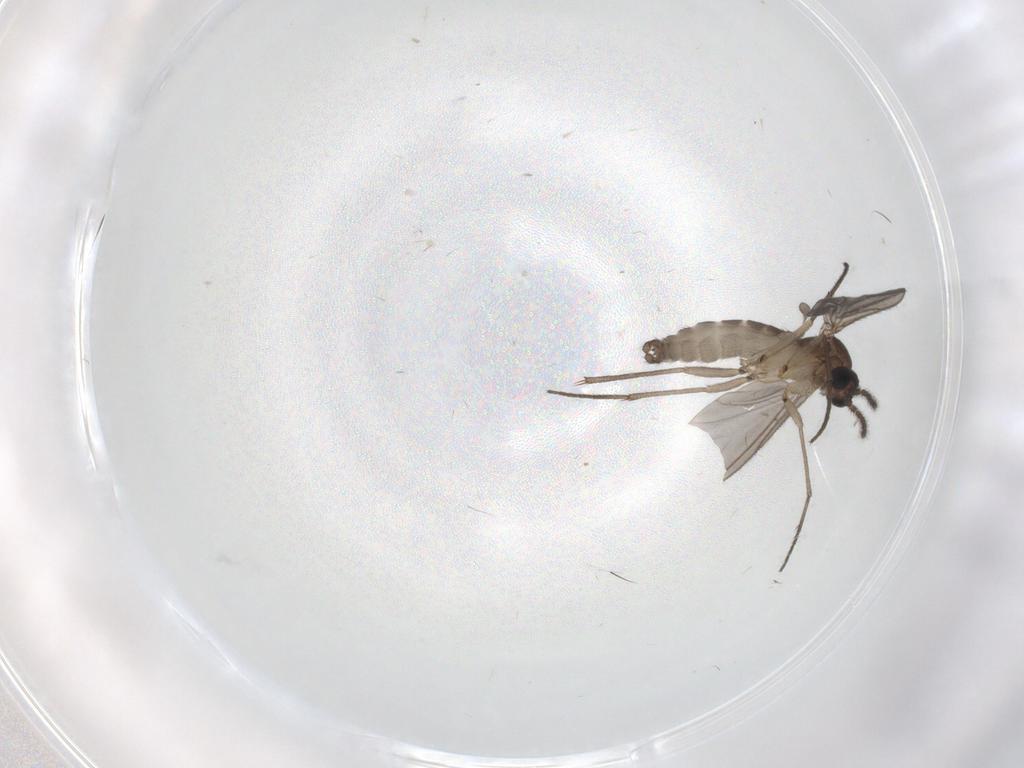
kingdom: Animalia
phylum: Arthropoda
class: Insecta
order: Diptera
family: Sciaridae
